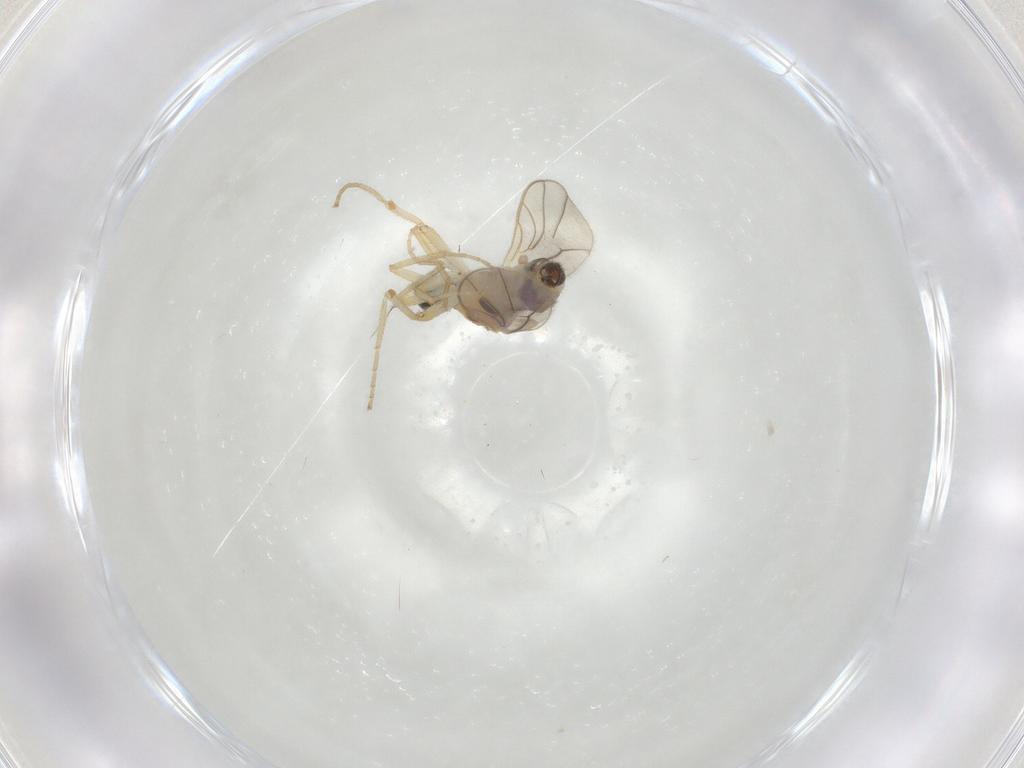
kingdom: Animalia
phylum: Arthropoda
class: Insecta
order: Diptera
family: Hybotidae
